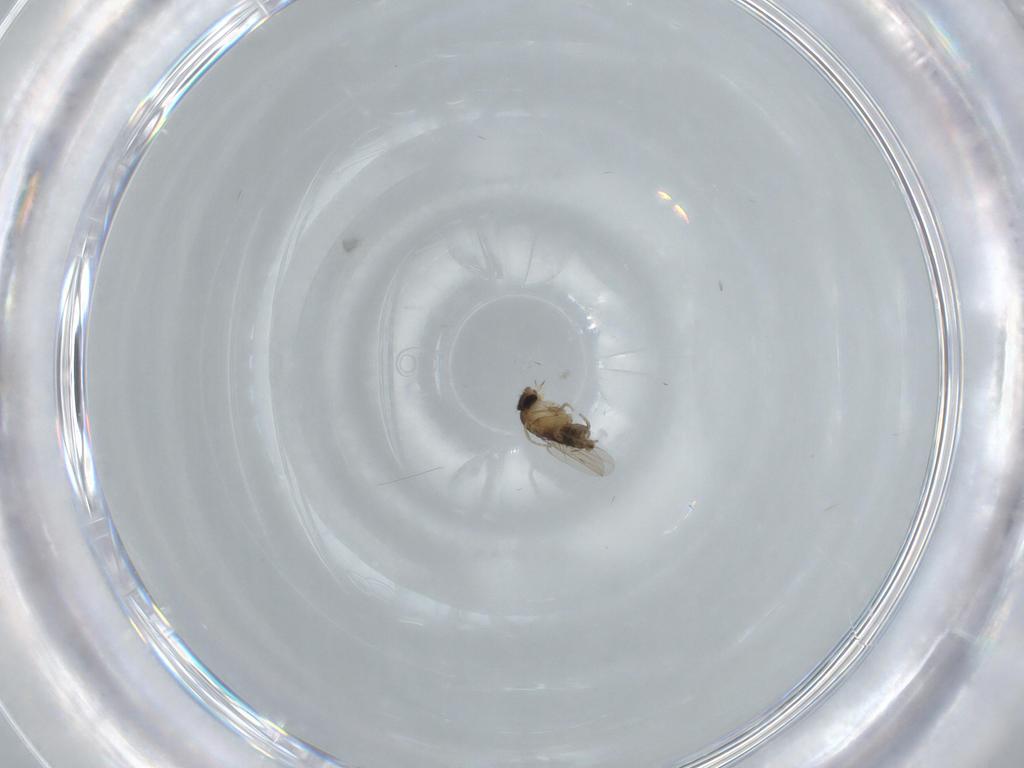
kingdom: Animalia
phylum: Arthropoda
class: Insecta
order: Diptera
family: Phoridae
